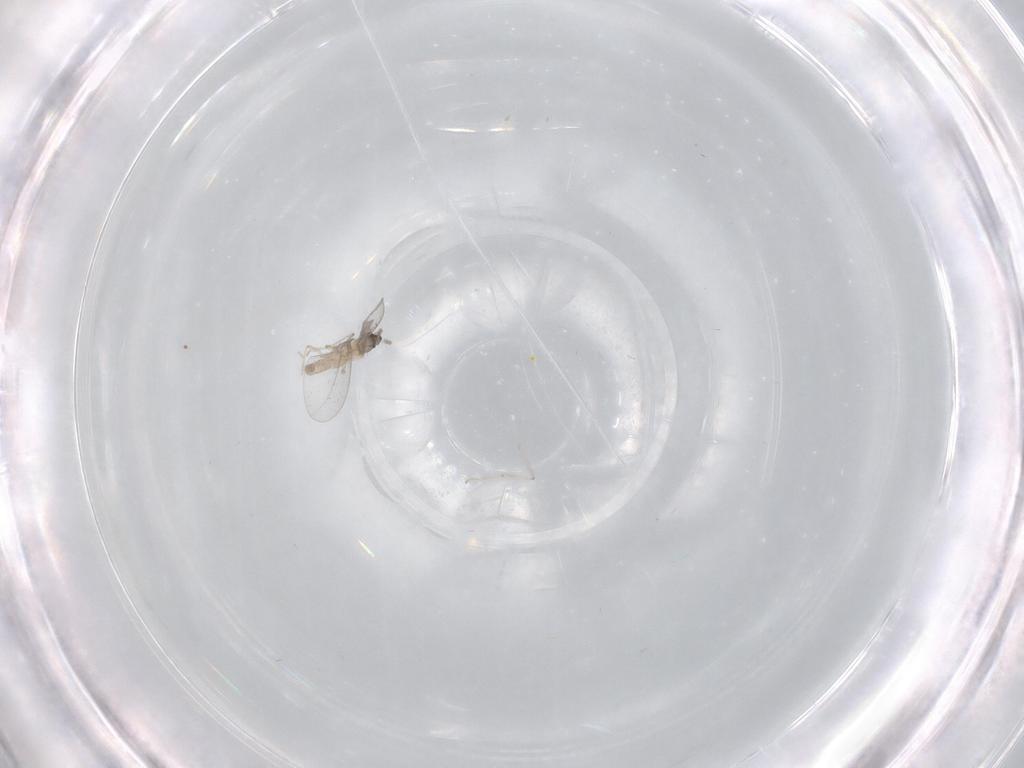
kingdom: Animalia
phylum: Arthropoda
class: Insecta
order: Diptera
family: Cecidomyiidae
